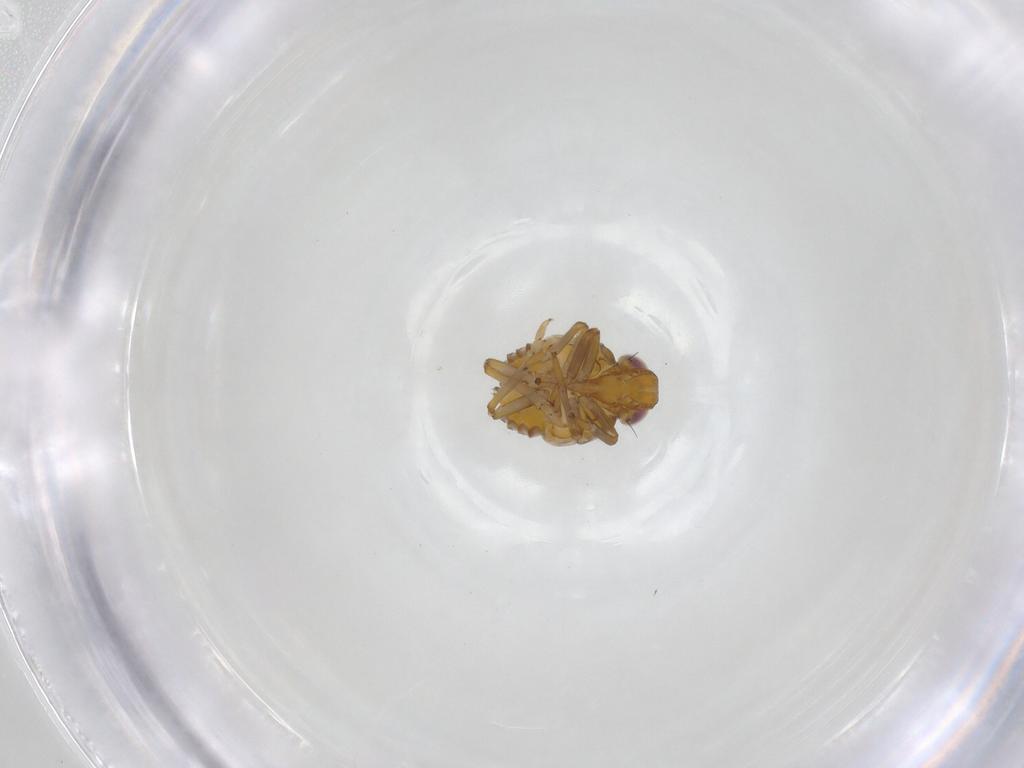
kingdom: Animalia
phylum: Arthropoda
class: Insecta
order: Hemiptera
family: Issidae
